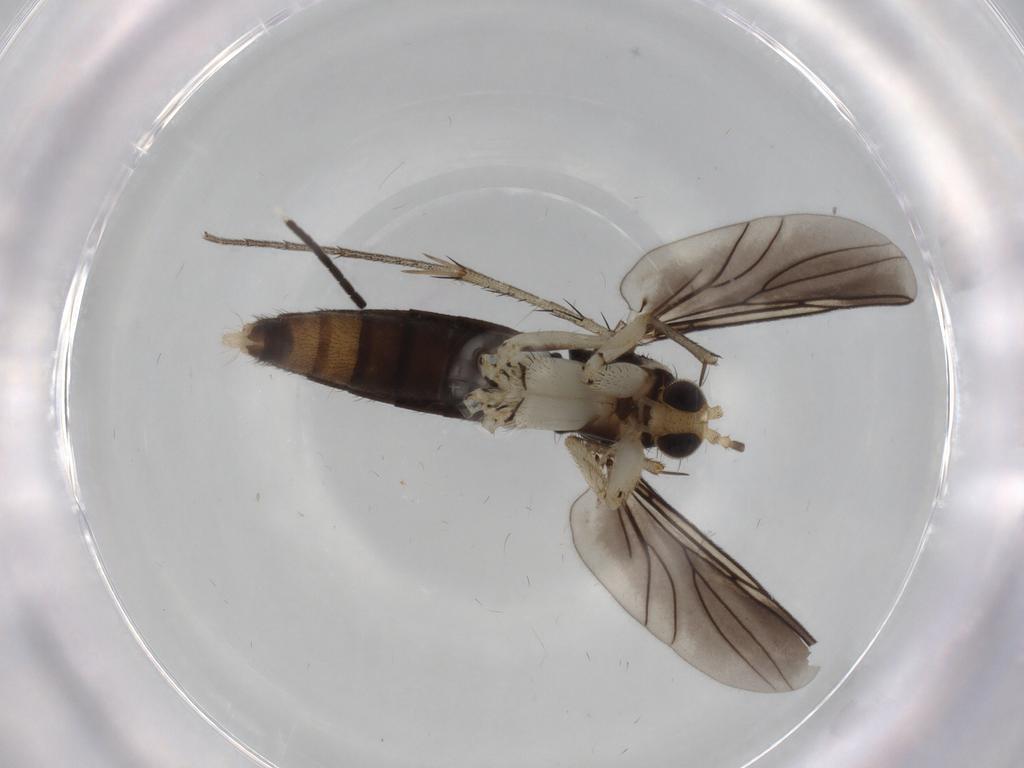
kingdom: Animalia
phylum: Arthropoda
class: Insecta
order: Diptera
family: Mycetophilidae
